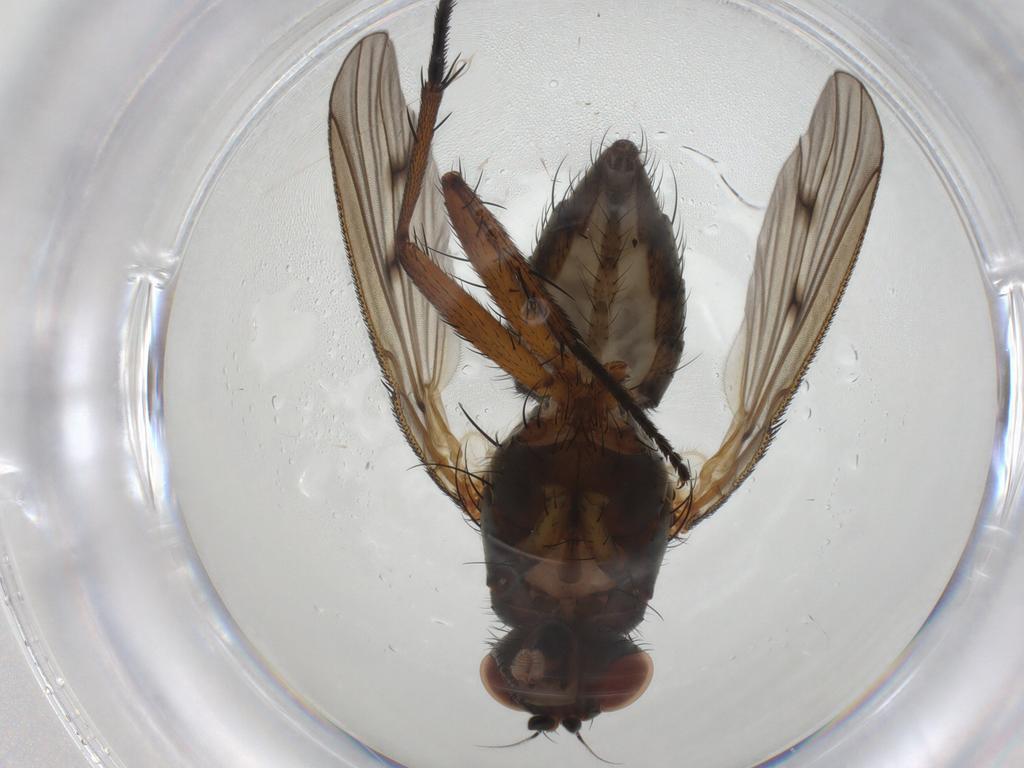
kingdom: Animalia
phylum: Arthropoda
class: Insecta
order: Diptera
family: Anthomyiidae
